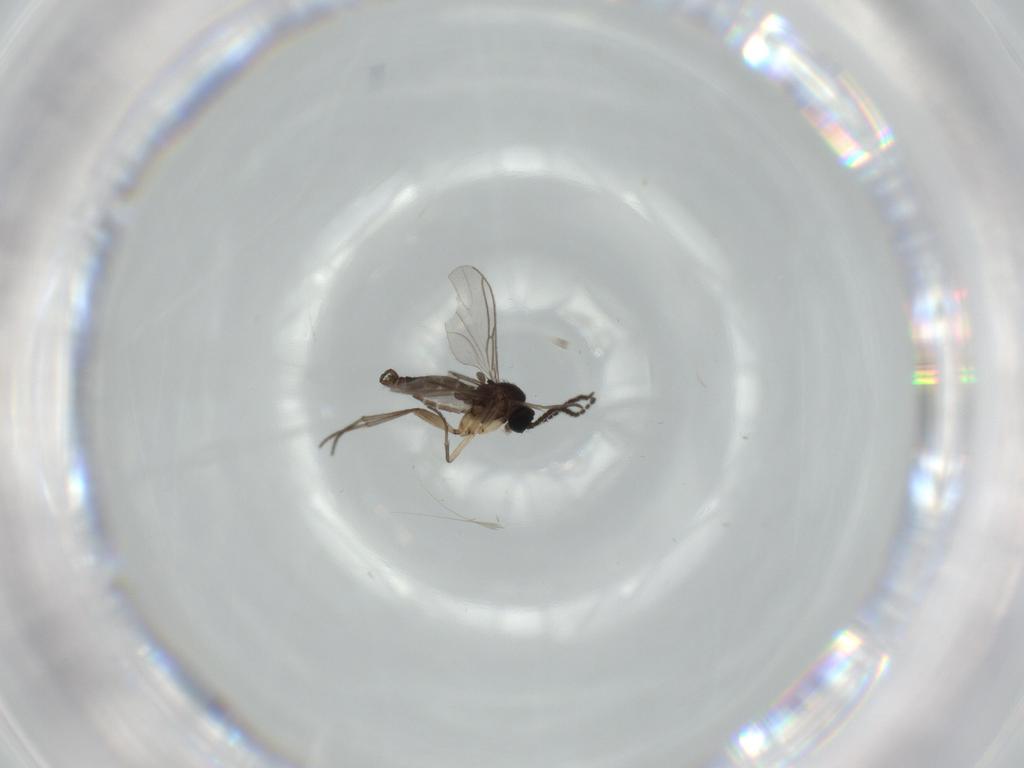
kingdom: Animalia
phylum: Arthropoda
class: Insecta
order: Diptera
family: Sciaridae
